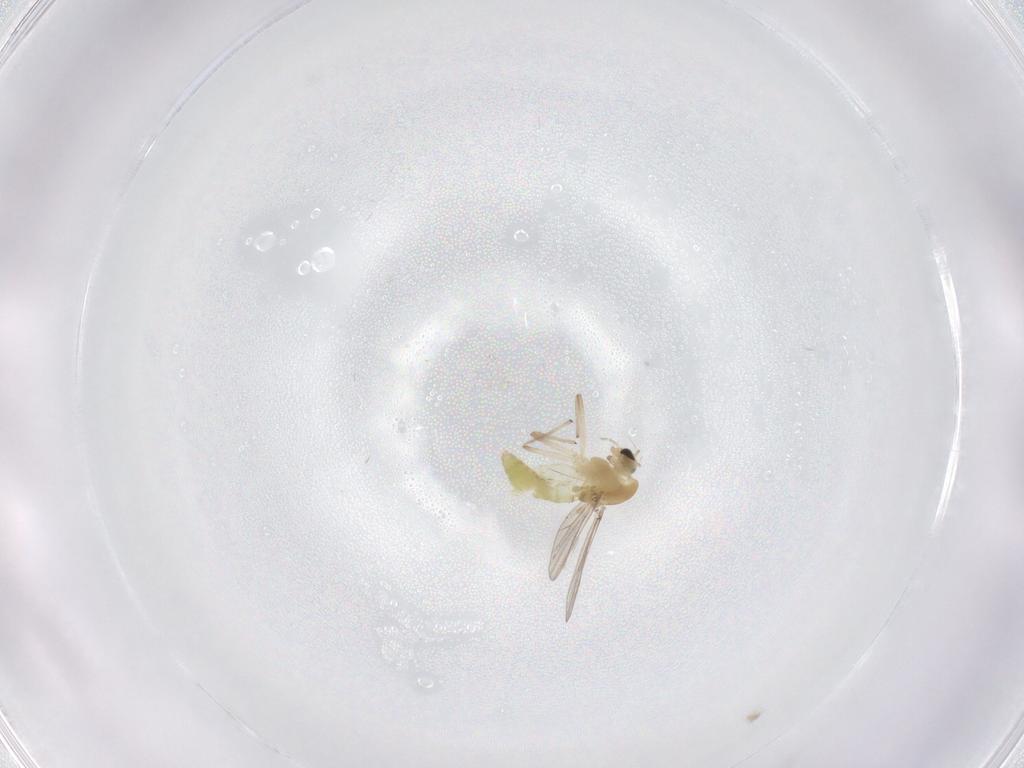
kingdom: Animalia
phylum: Arthropoda
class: Insecta
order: Diptera
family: Chironomidae
